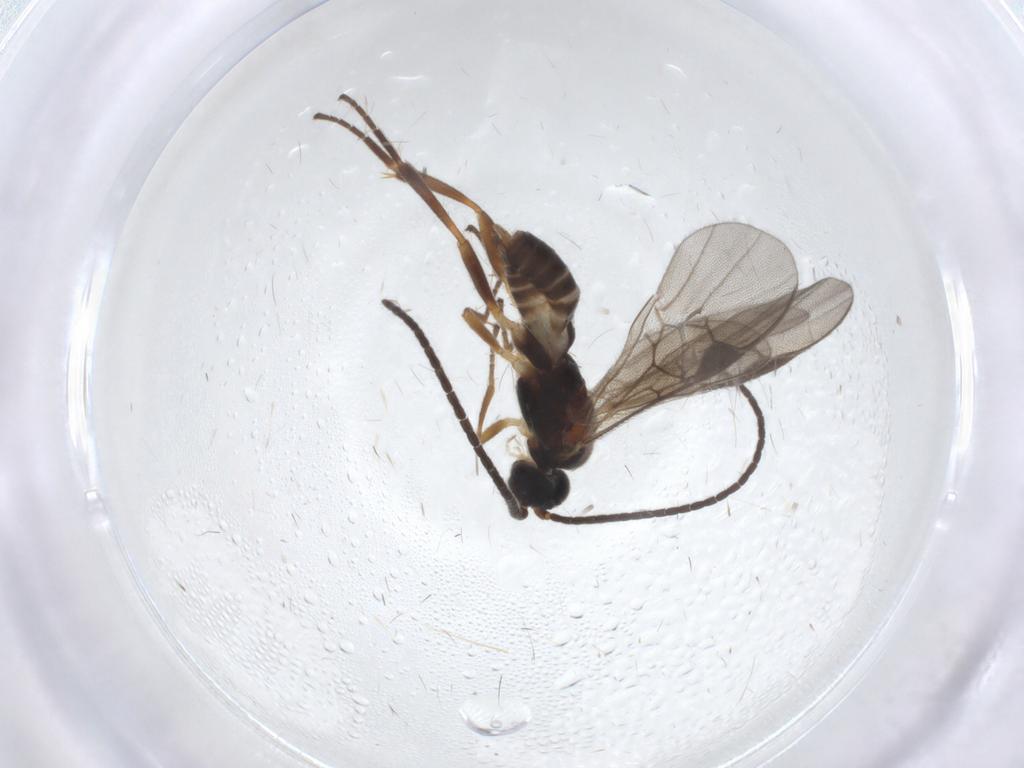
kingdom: Animalia
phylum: Arthropoda
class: Insecta
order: Hymenoptera
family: Braconidae
